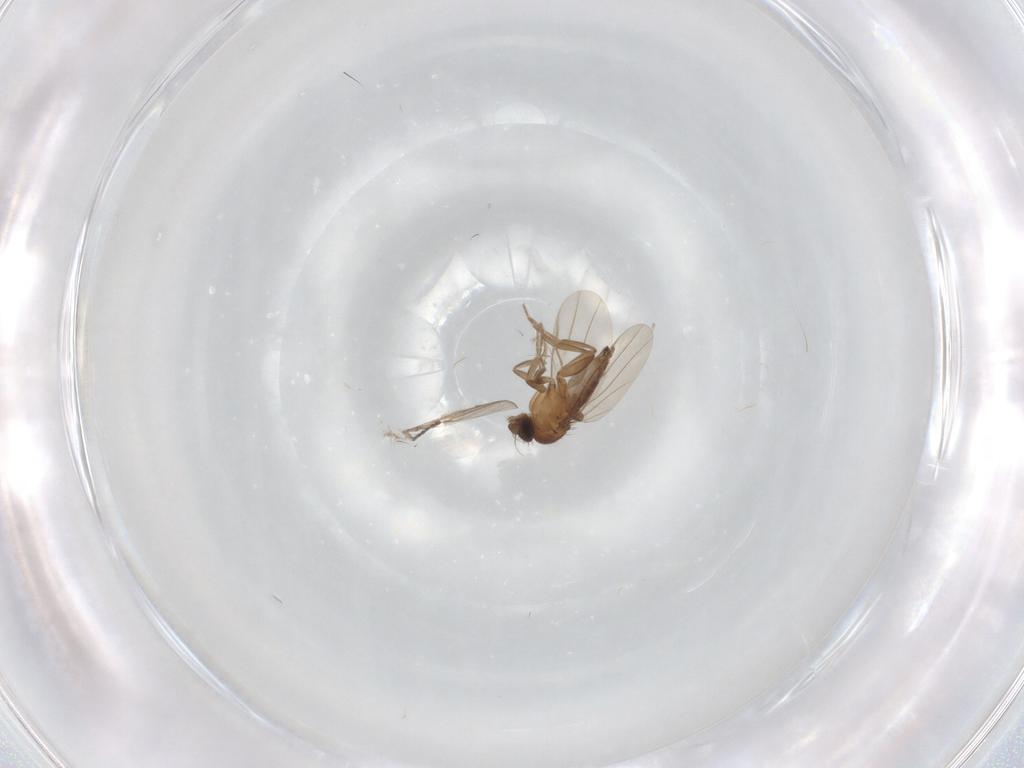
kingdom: Animalia
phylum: Arthropoda
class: Insecta
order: Diptera
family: Cecidomyiidae
